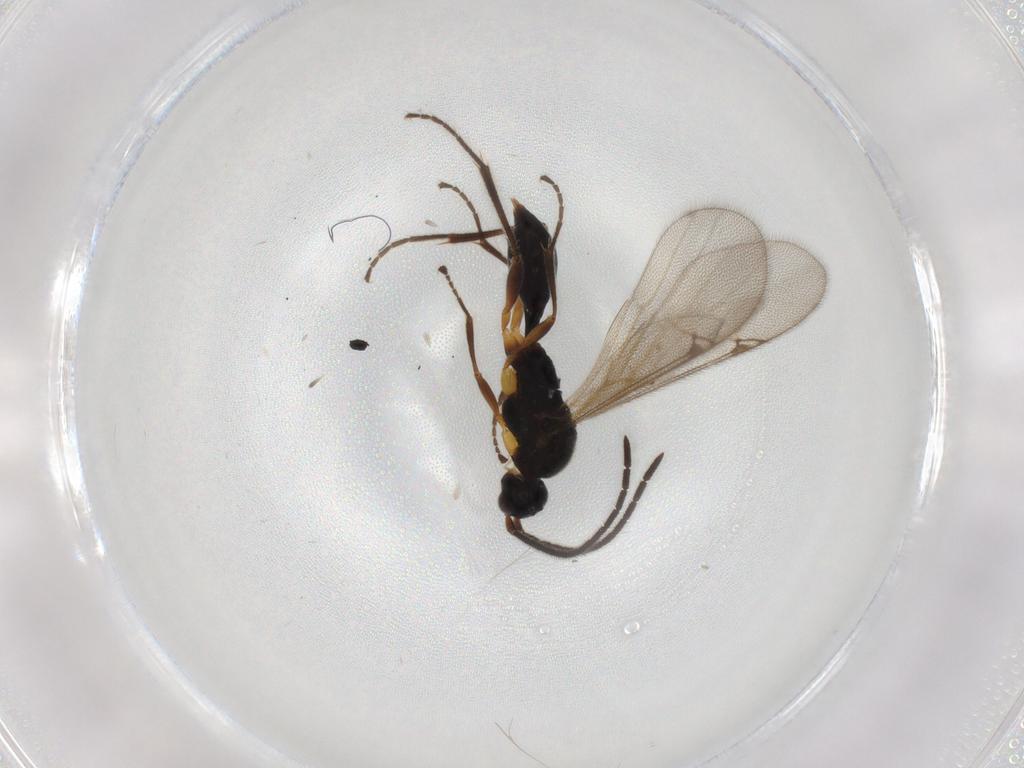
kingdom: Animalia
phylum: Arthropoda
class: Insecta
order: Hymenoptera
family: Proctotrupidae
